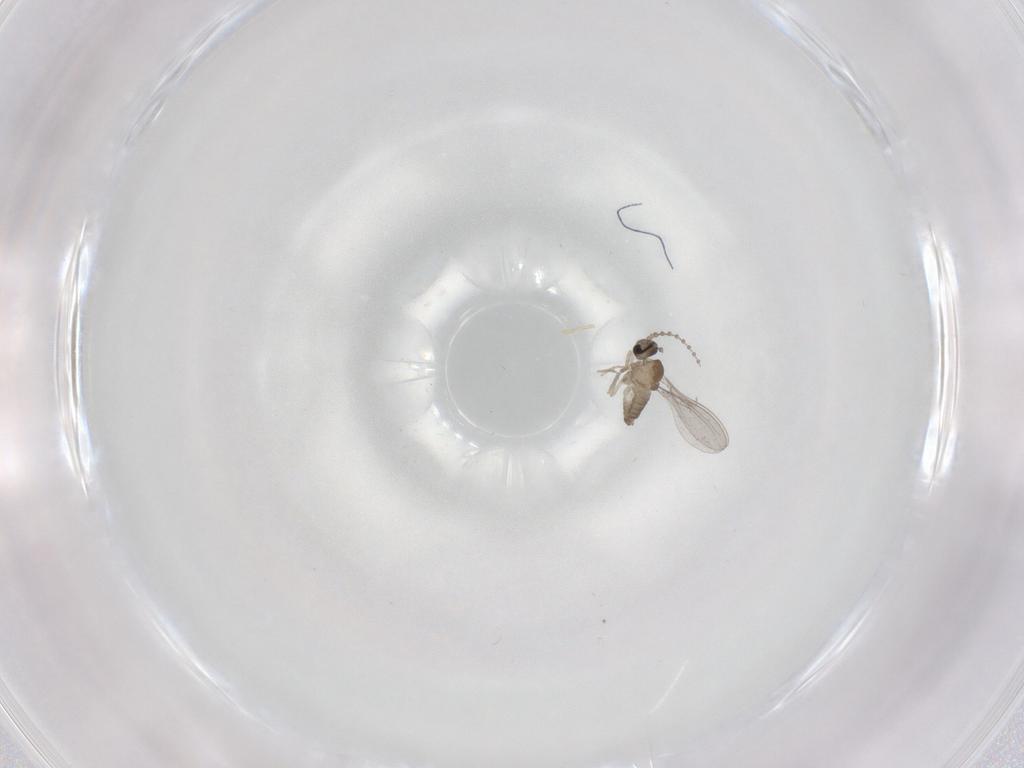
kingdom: Animalia
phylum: Arthropoda
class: Insecta
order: Diptera
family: Cecidomyiidae
